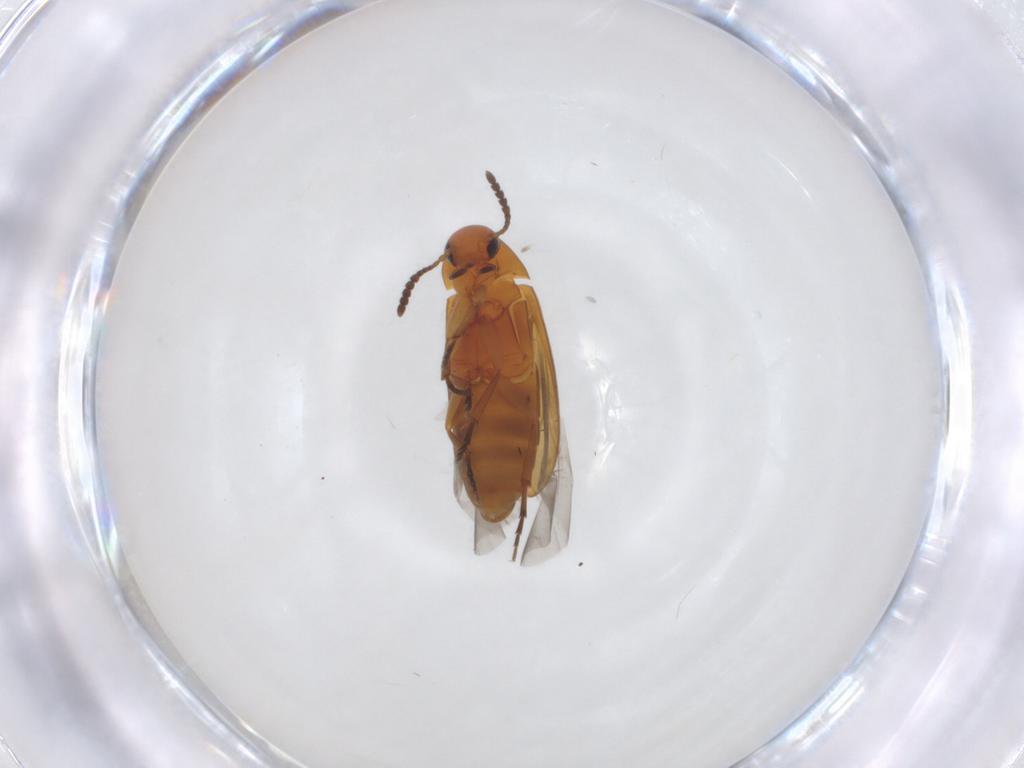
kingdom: Animalia
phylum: Arthropoda
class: Insecta
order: Coleoptera
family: Scraptiidae
